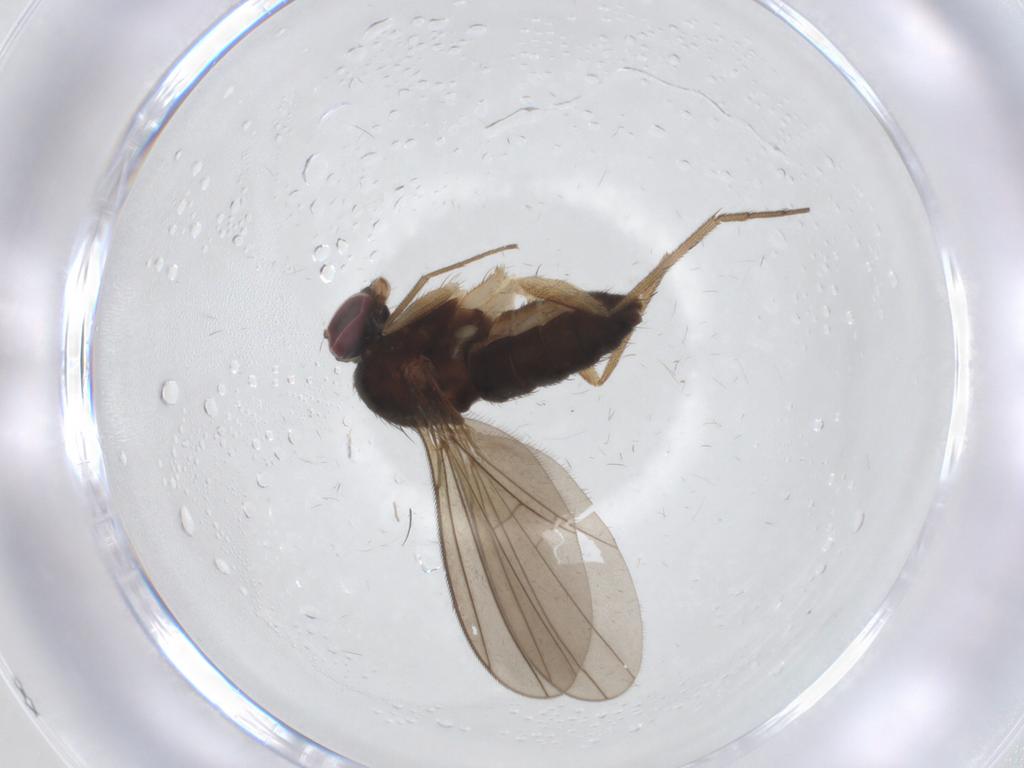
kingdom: Animalia
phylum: Arthropoda
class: Insecta
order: Diptera
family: Dolichopodidae
